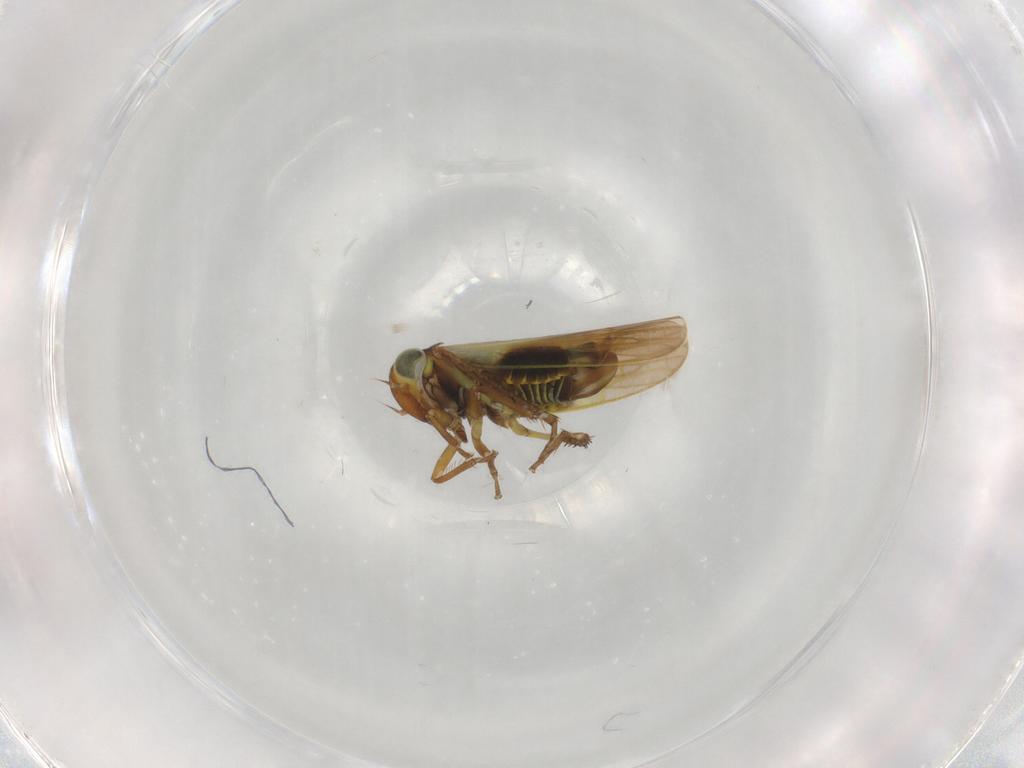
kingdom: Animalia
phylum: Arthropoda
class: Insecta
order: Hemiptera
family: Cicadellidae
